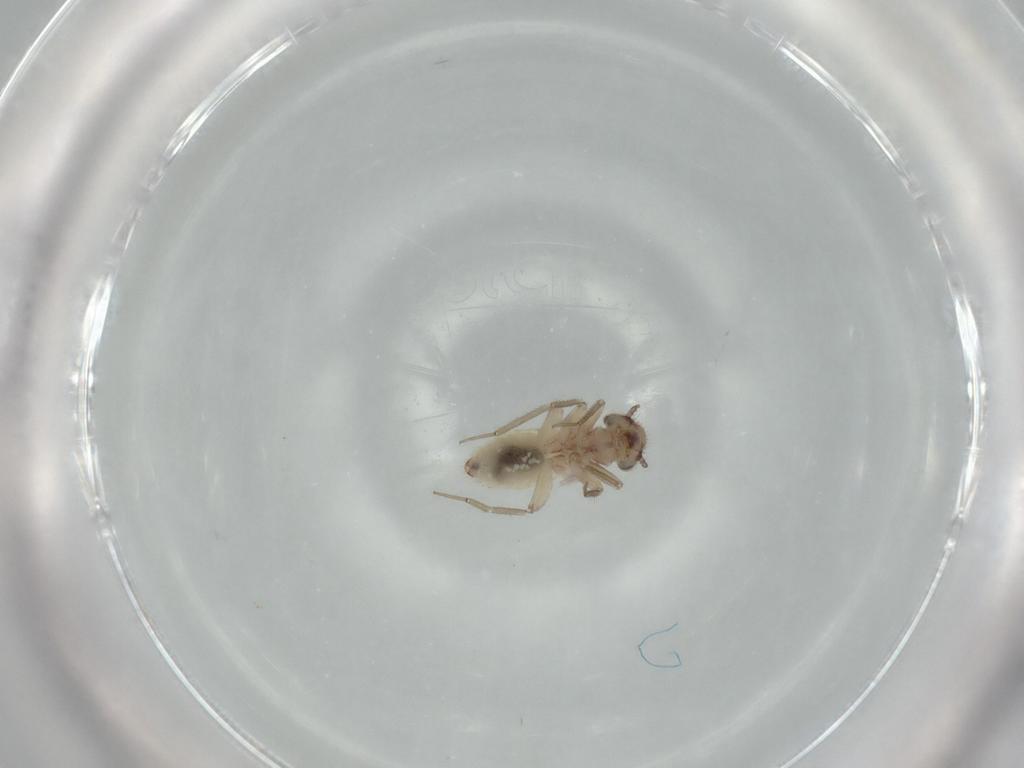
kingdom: Animalia
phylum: Arthropoda
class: Insecta
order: Psocodea
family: Lepidopsocidae
